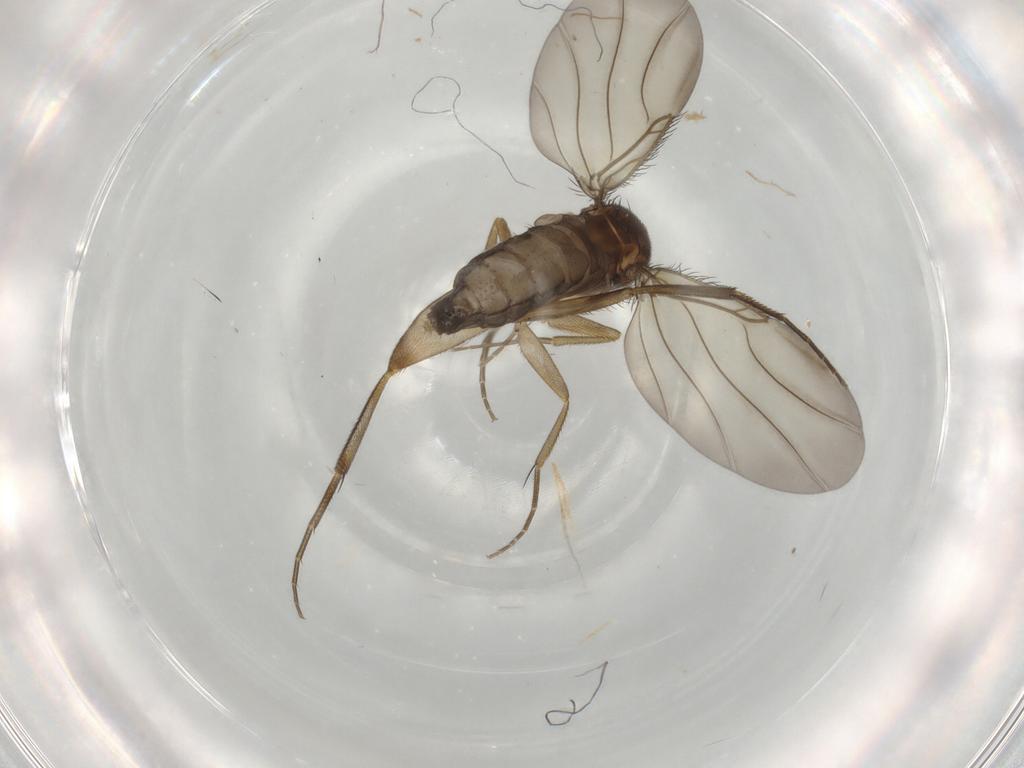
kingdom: Animalia
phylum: Arthropoda
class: Insecta
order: Diptera
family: Phoridae
